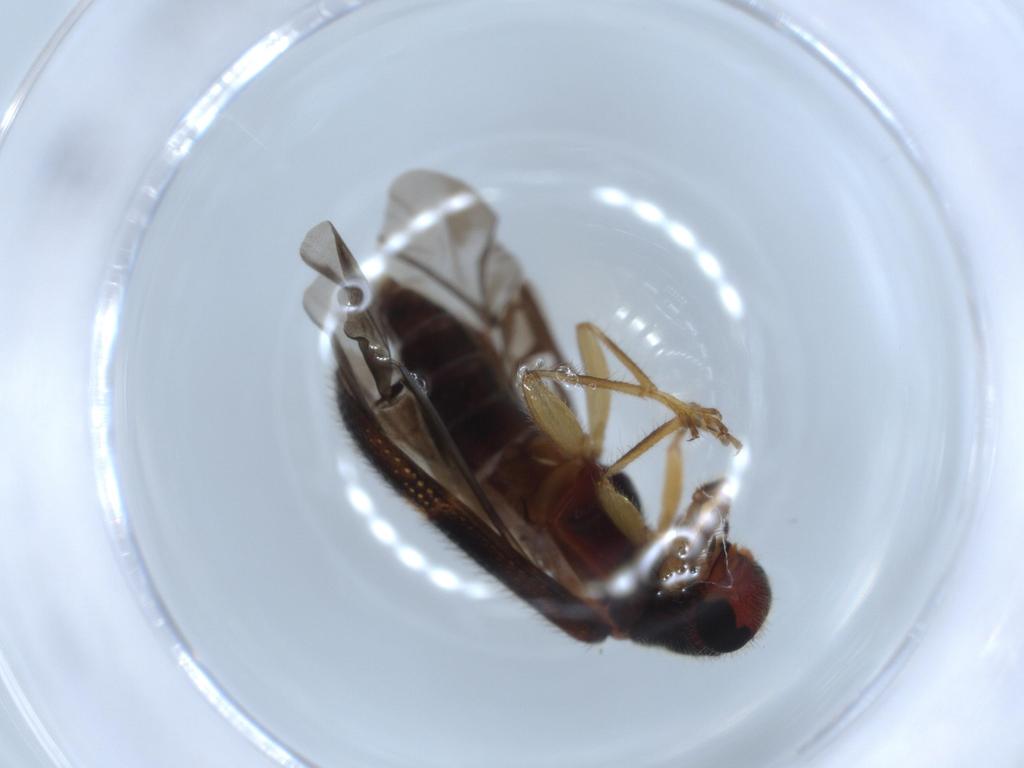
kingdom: Animalia
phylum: Arthropoda
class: Insecta
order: Coleoptera
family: Cleridae
